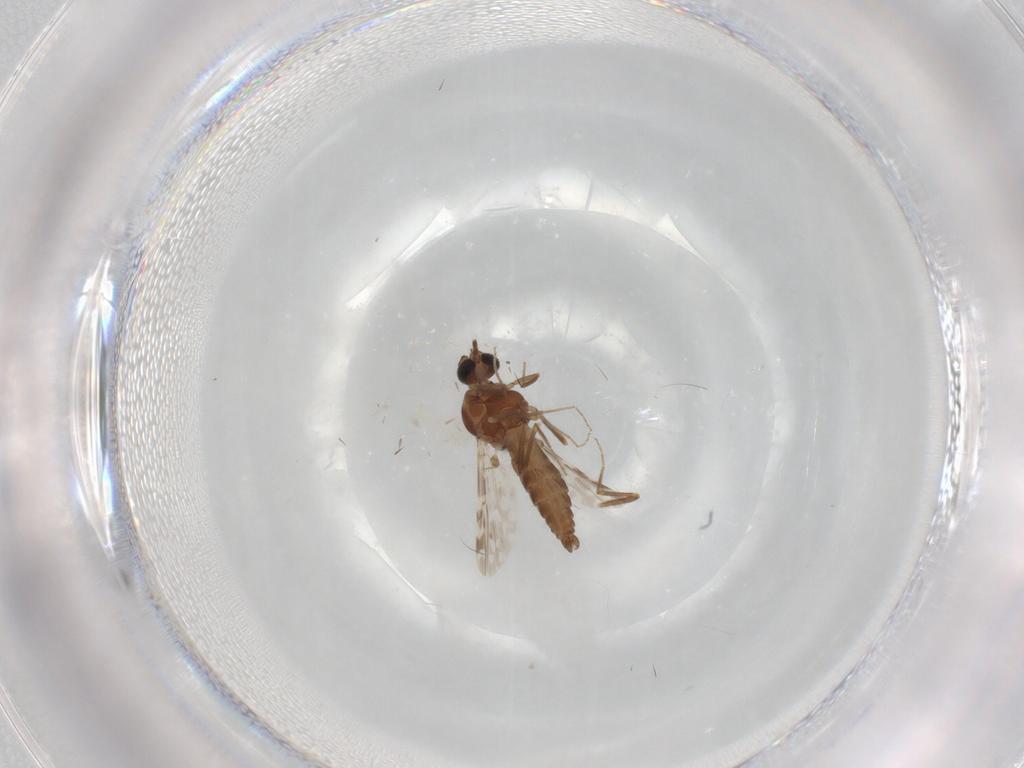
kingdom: Animalia
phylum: Arthropoda
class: Insecta
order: Diptera
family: Ceratopogonidae
